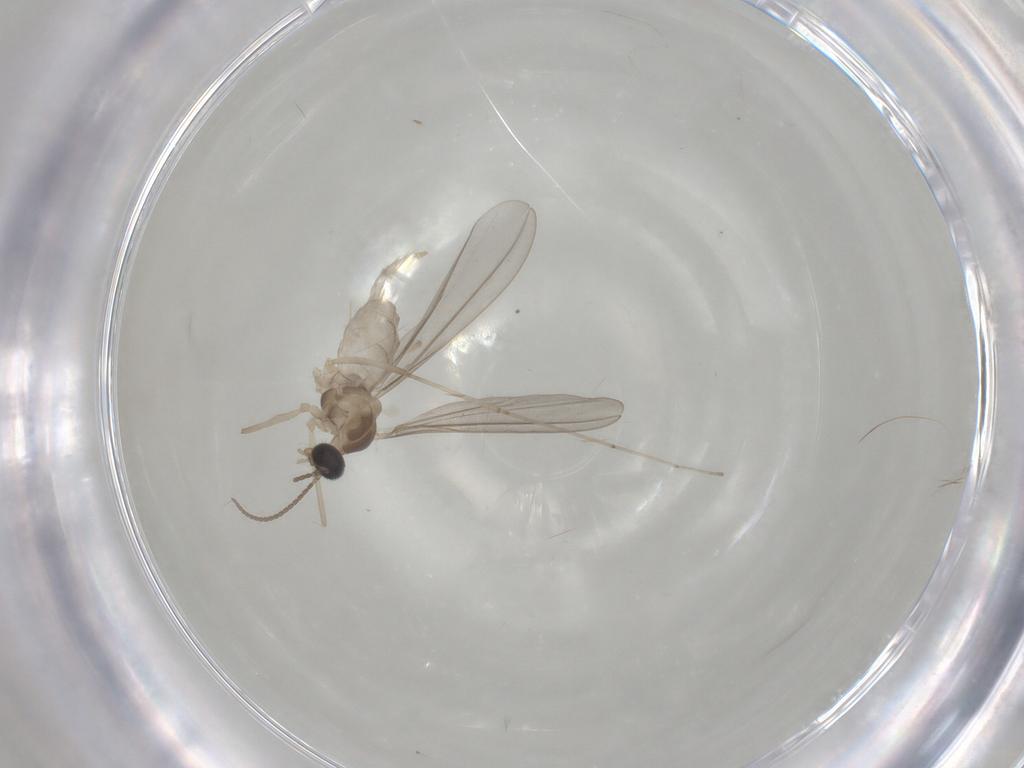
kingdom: Animalia
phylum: Arthropoda
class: Insecta
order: Diptera
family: Cecidomyiidae
